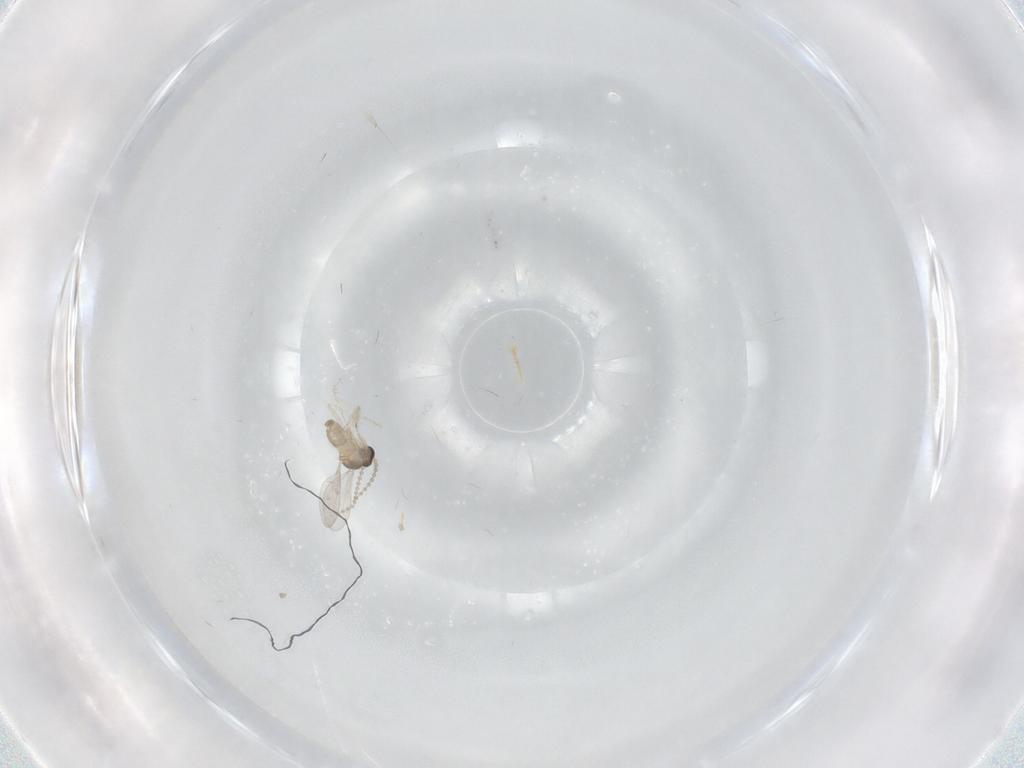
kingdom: Animalia
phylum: Arthropoda
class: Insecta
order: Diptera
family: Cecidomyiidae
